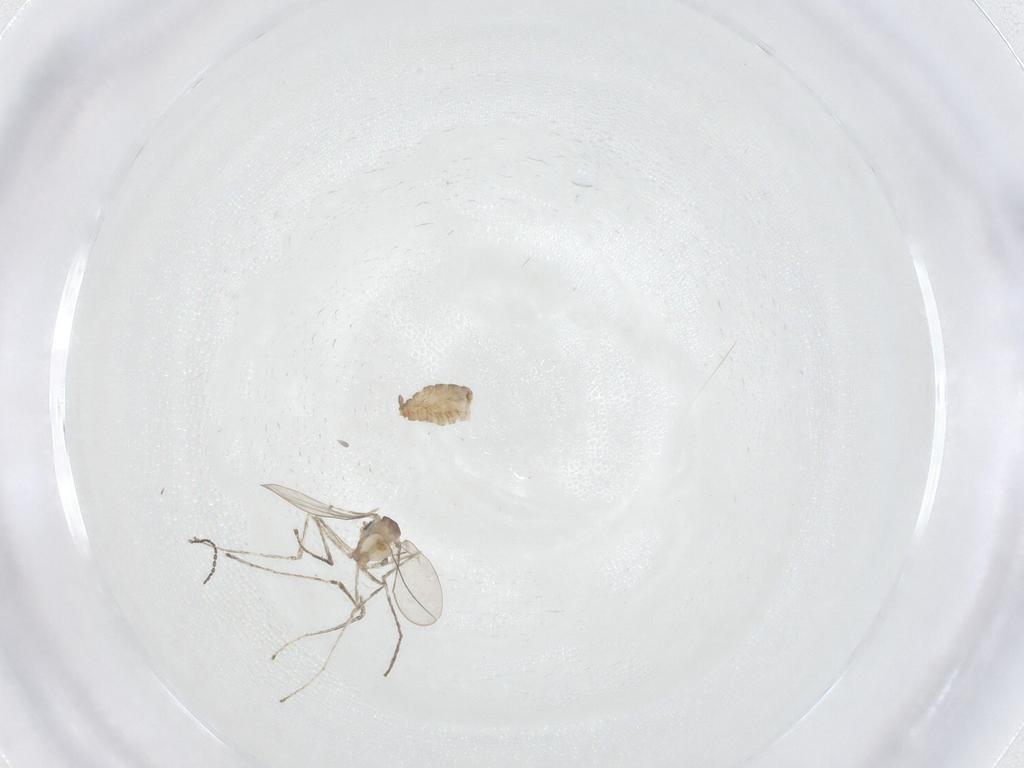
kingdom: Animalia
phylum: Arthropoda
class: Insecta
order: Diptera
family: Cecidomyiidae
